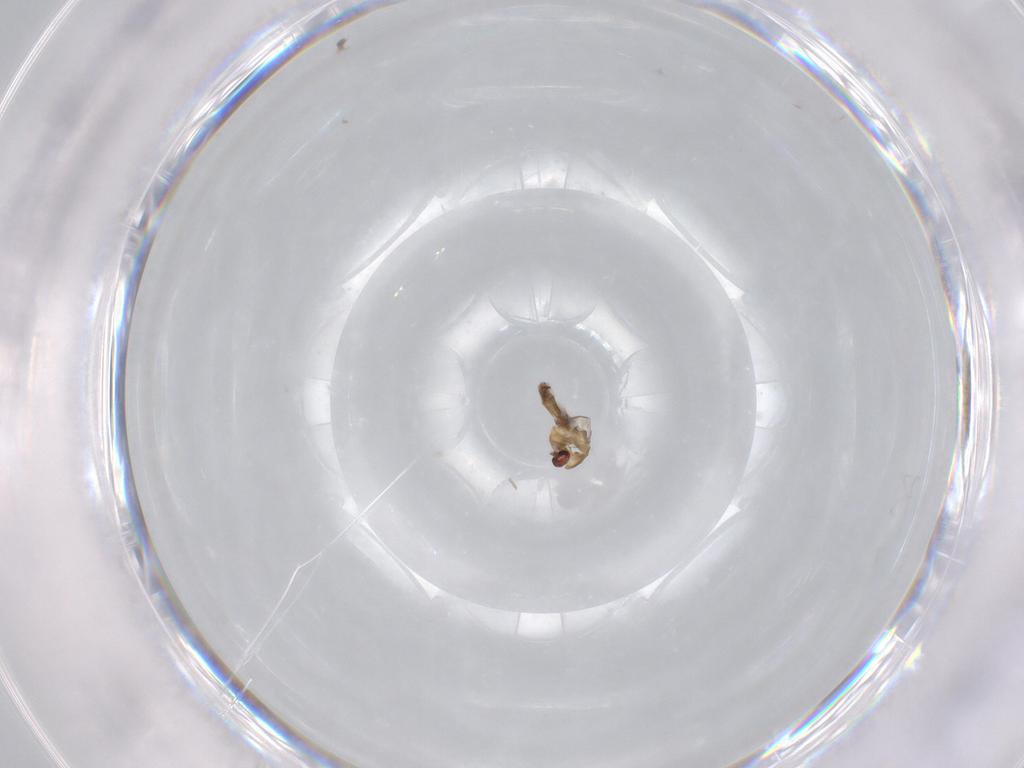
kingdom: Animalia
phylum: Arthropoda
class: Insecta
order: Diptera
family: Chironomidae
